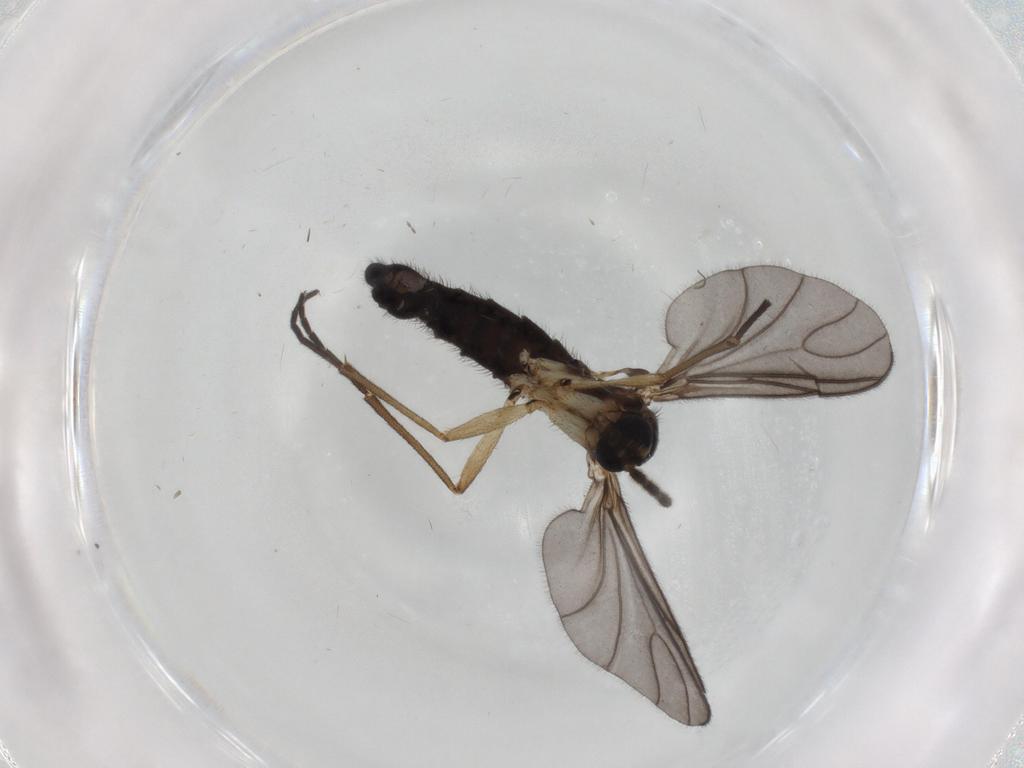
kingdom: Animalia
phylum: Arthropoda
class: Insecta
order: Diptera
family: Sciaridae
